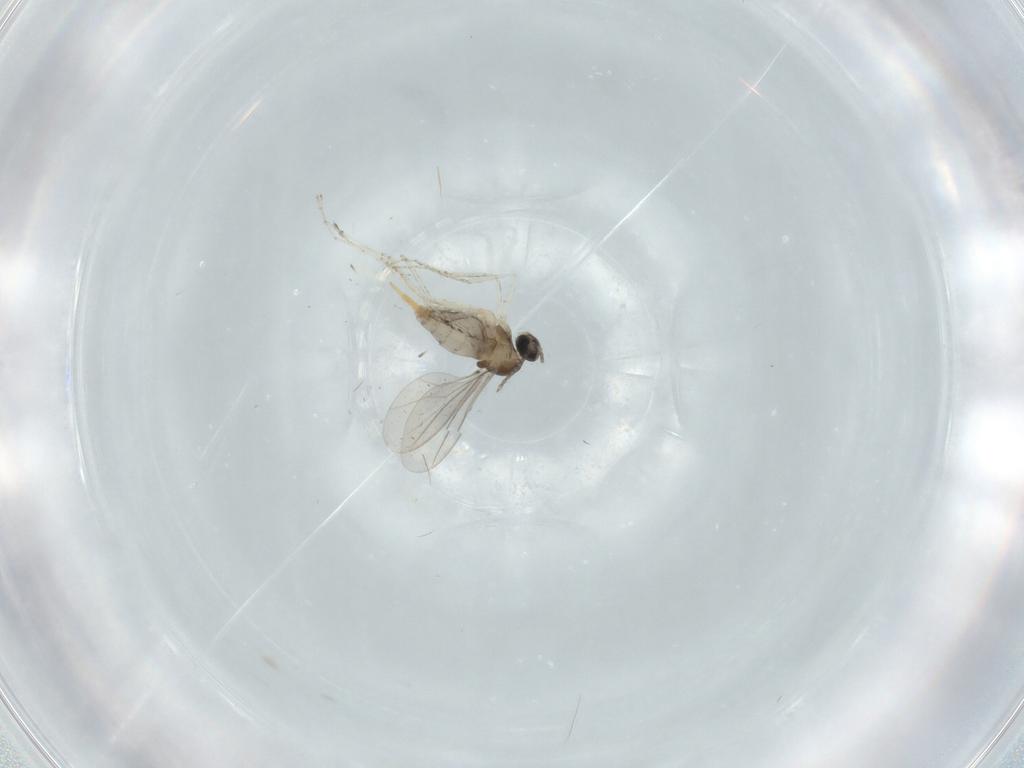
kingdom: Animalia
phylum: Arthropoda
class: Insecta
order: Diptera
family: Cecidomyiidae
